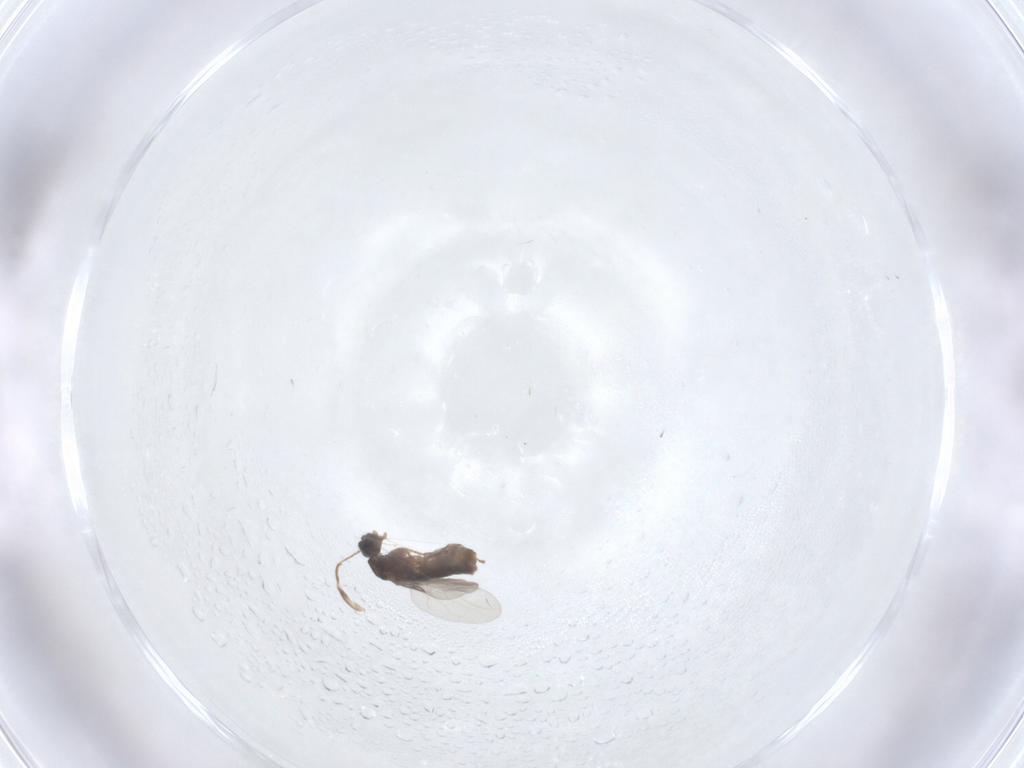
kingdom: Animalia
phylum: Arthropoda
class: Insecta
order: Diptera
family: Scatopsidae
